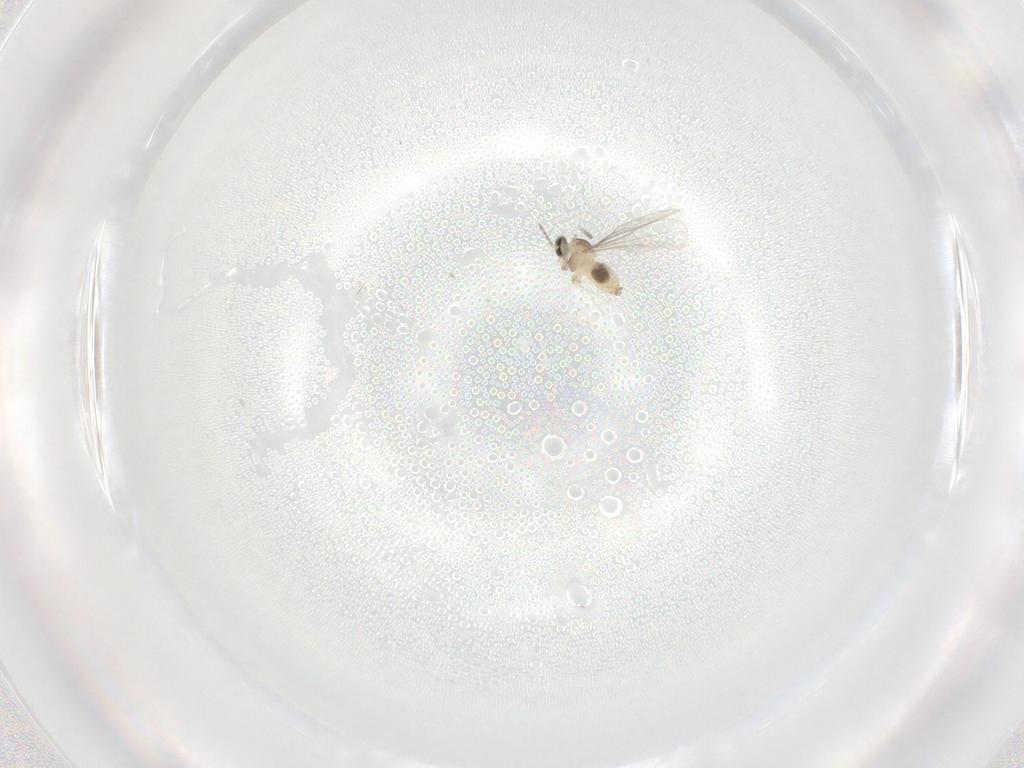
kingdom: Animalia
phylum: Arthropoda
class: Insecta
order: Diptera
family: Cecidomyiidae
